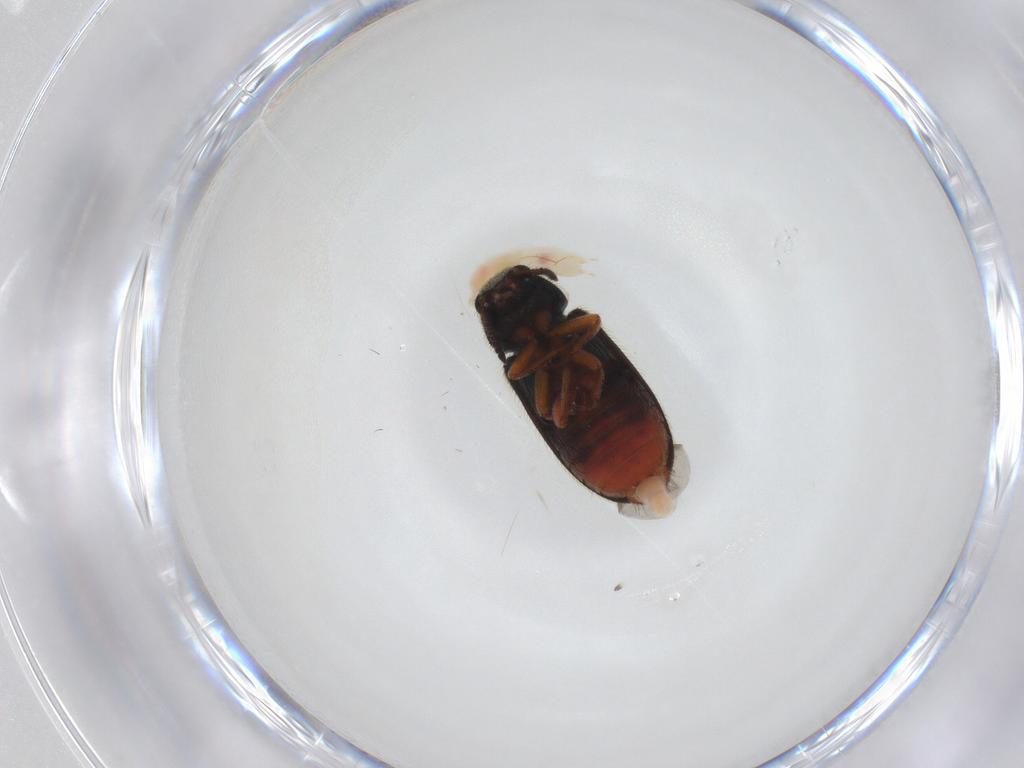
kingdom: Animalia
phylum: Arthropoda
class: Insecta
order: Coleoptera
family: Melyridae
